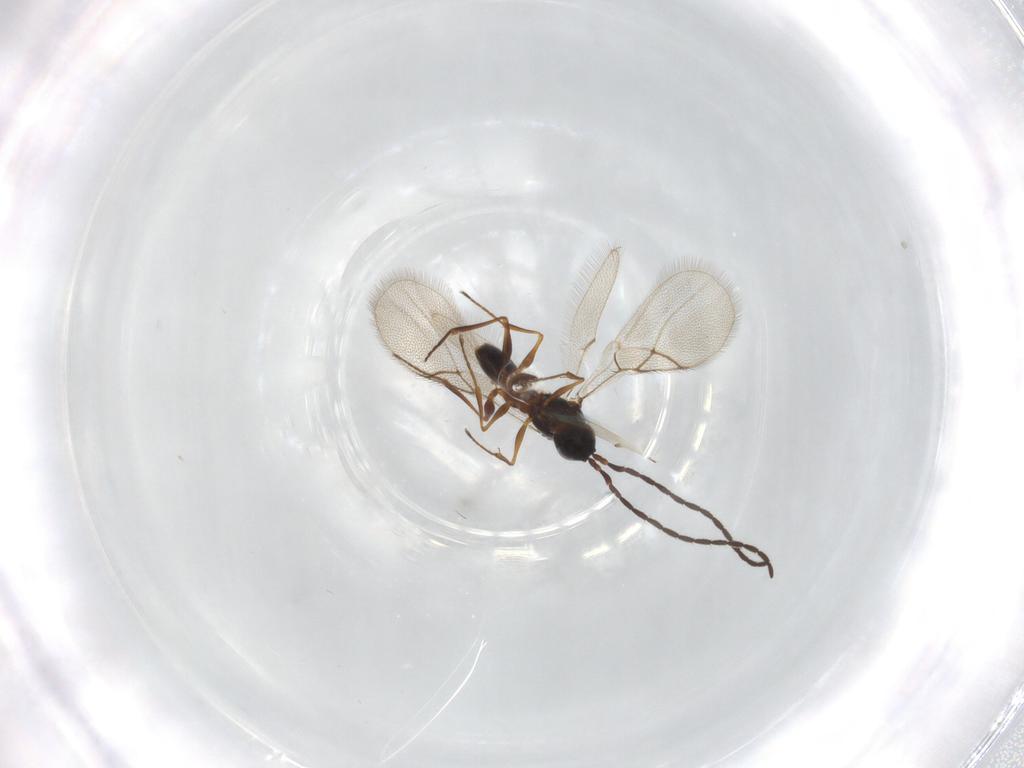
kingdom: Animalia
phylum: Arthropoda
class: Insecta
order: Hymenoptera
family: Figitidae
